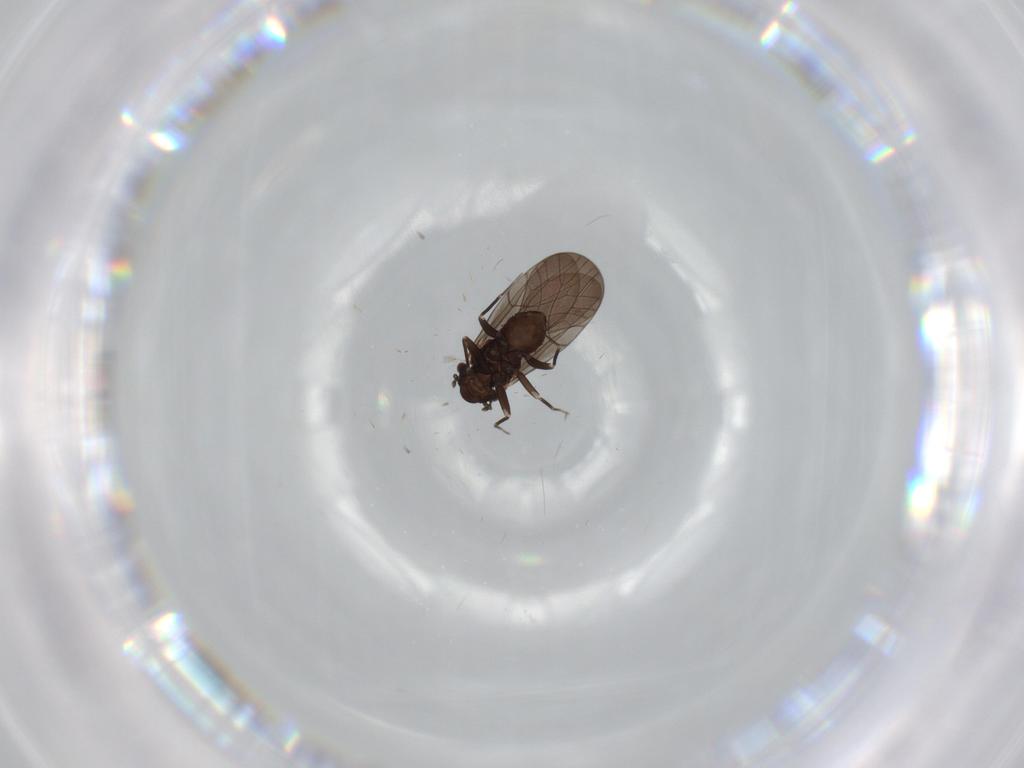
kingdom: Animalia
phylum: Arthropoda
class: Insecta
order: Psocodea
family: Lepidopsocidae
